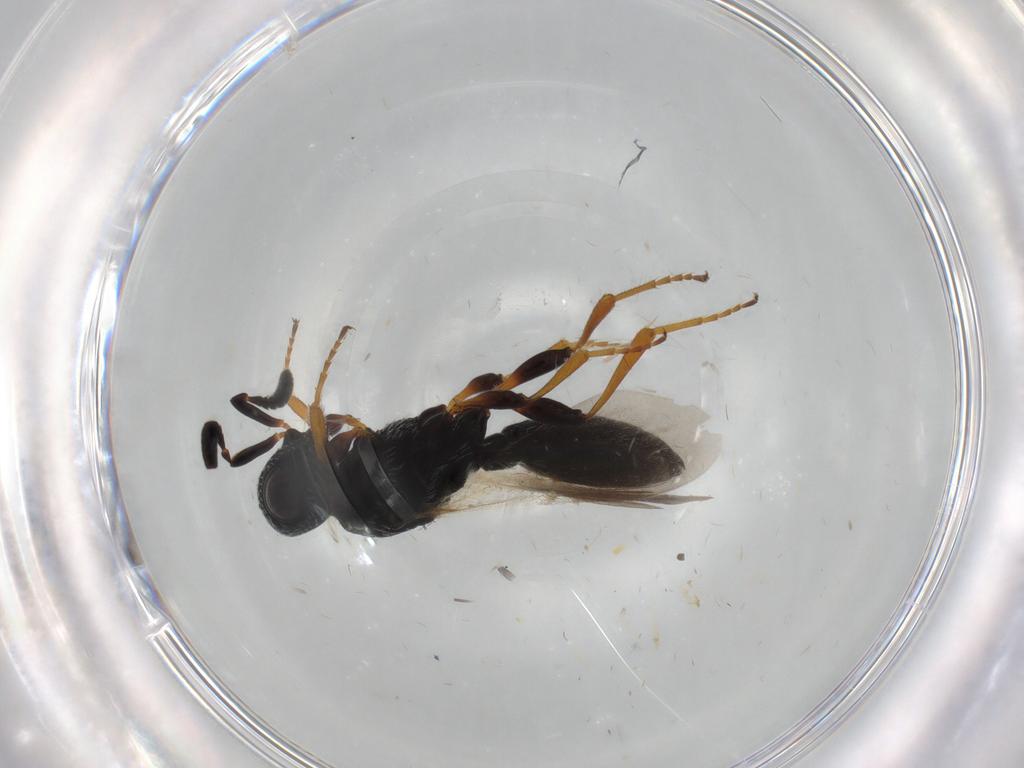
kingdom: Animalia
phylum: Arthropoda
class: Insecta
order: Hymenoptera
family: Scelionidae
